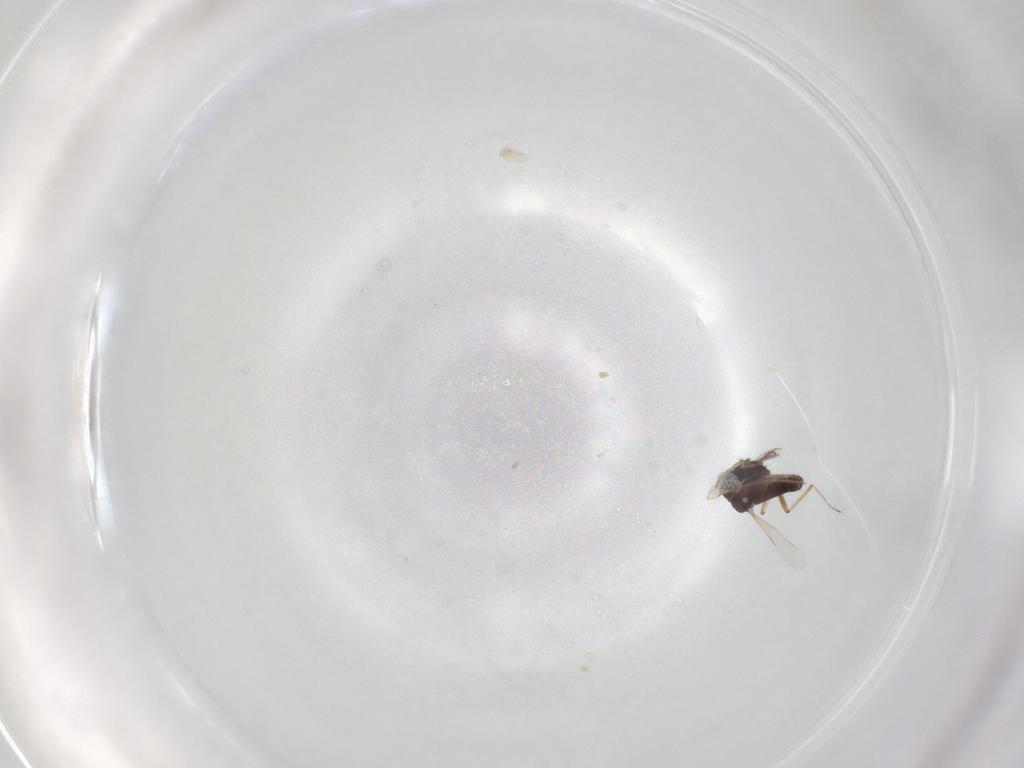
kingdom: Animalia
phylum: Arthropoda
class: Insecta
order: Diptera
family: Ceratopogonidae
